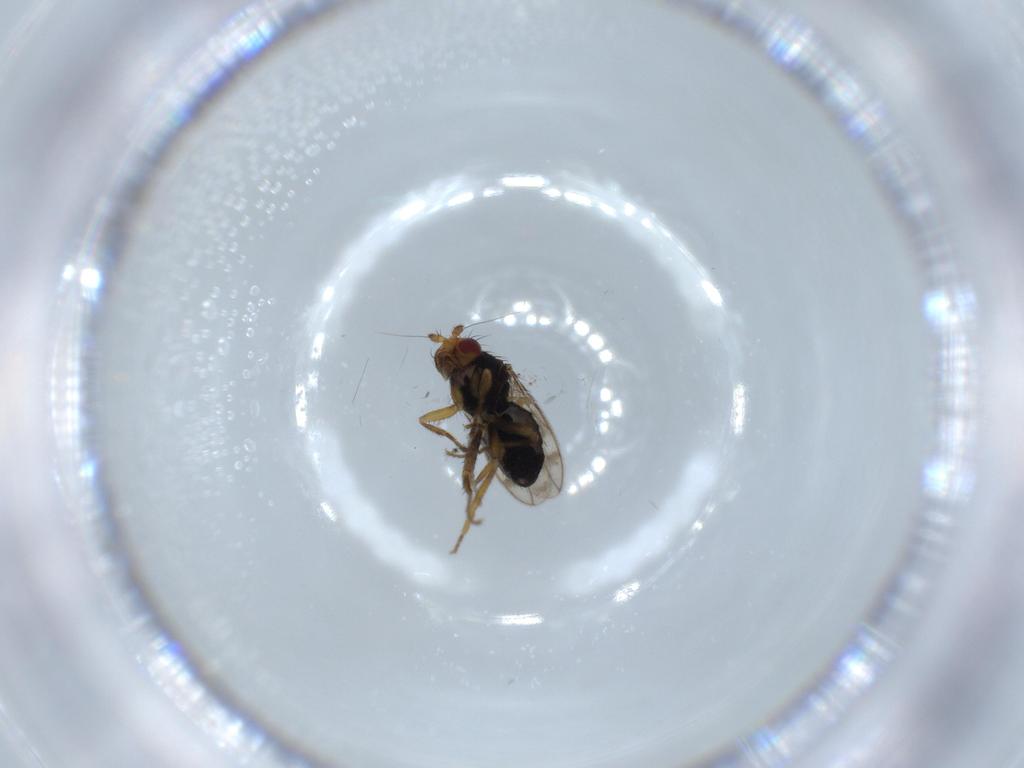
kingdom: Animalia
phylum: Arthropoda
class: Insecta
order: Diptera
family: Sphaeroceridae
